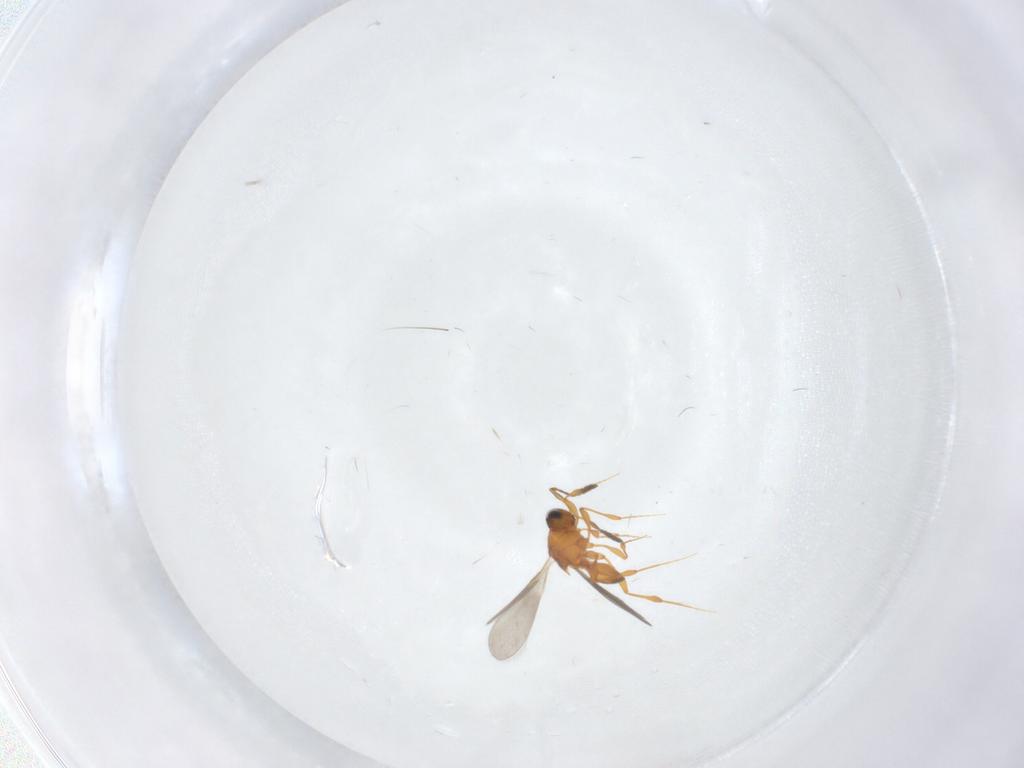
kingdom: Animalia
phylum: Arthropoda
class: Insecta
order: Hymenoptera
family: Platygastridae
